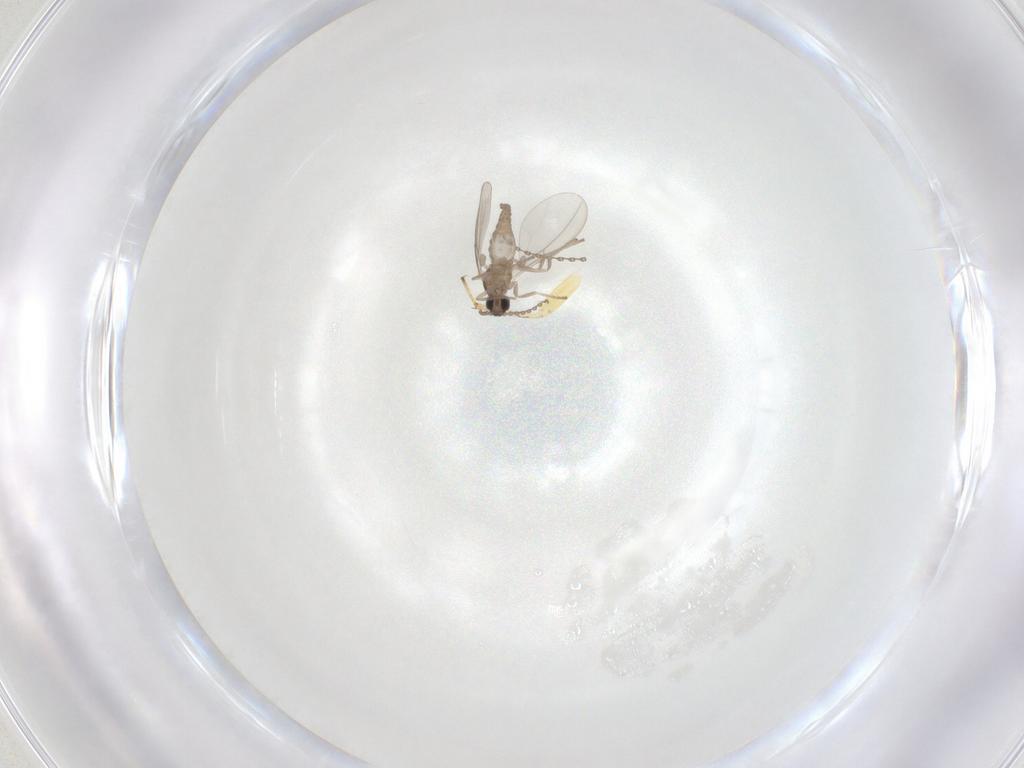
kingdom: Animalia
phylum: Arthropoda
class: Insecta
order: Diptera
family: Cecidomyiidae
